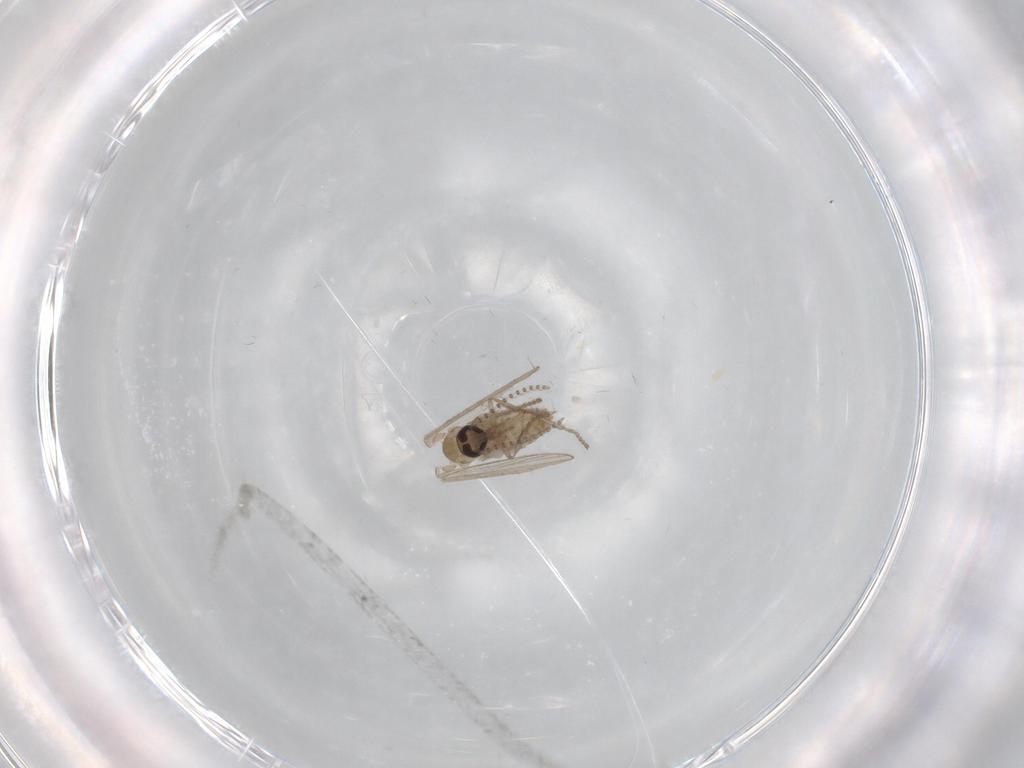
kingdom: Animalia
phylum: Arthropoda
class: Insecta
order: Diptera
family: Psychodidae
